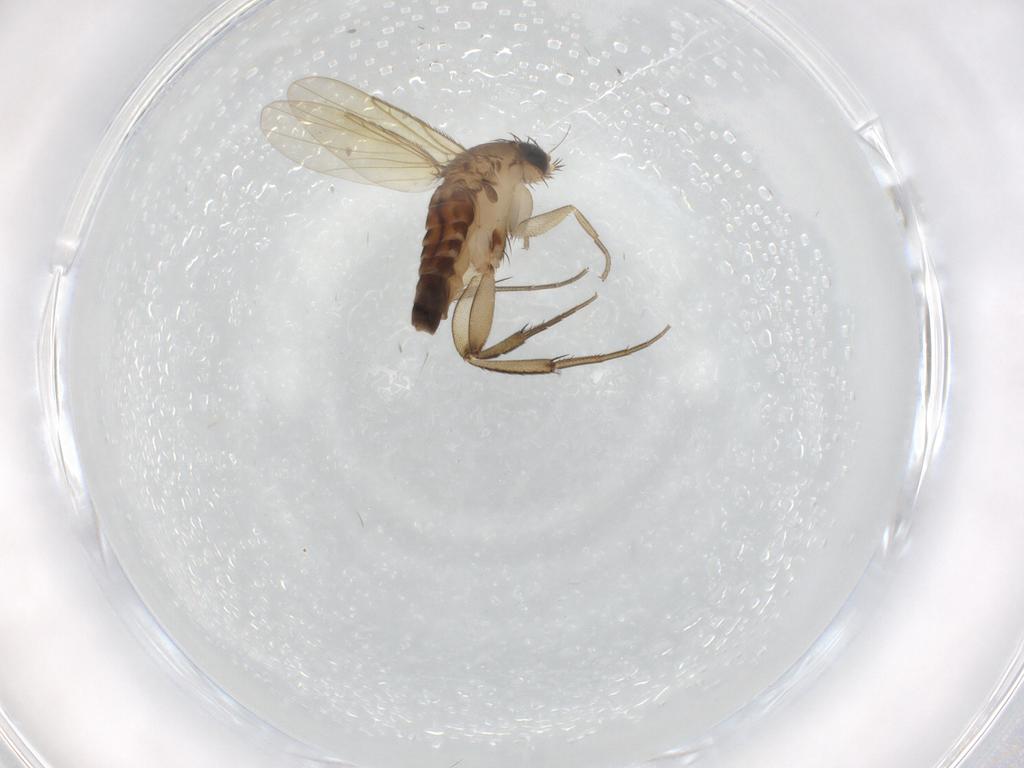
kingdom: Animalia
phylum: Arthropoda
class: Insecta
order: Diptera
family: Phoridae
